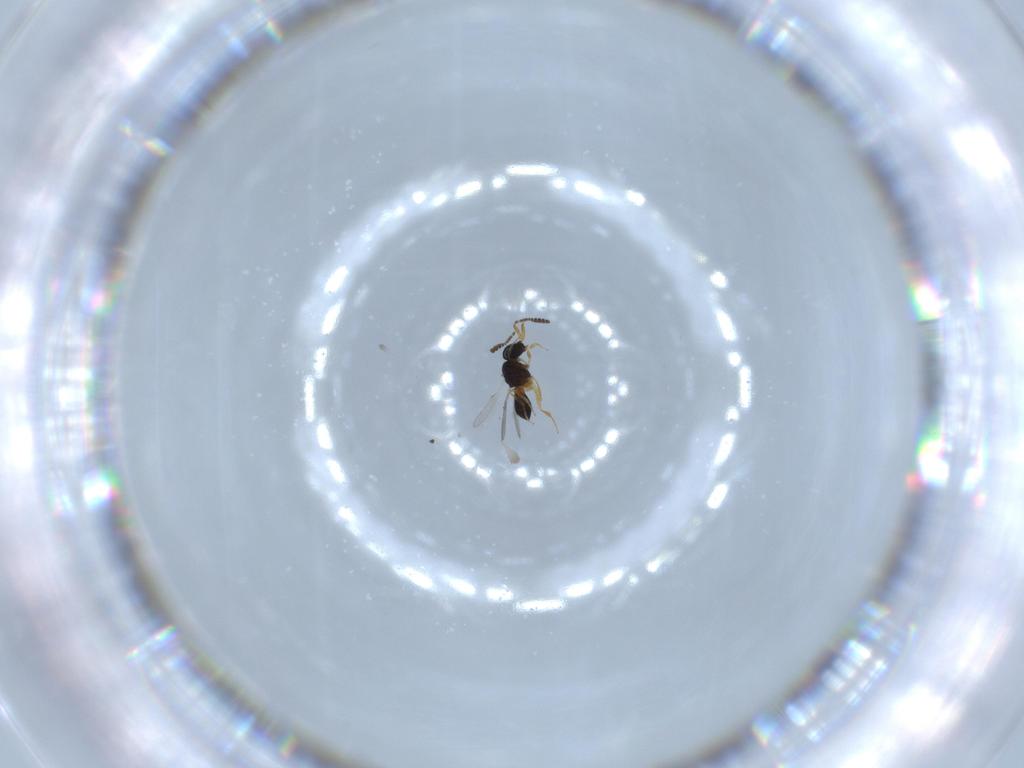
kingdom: Animalia
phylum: Arthropoda
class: Insecta
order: Hymenoptera
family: Scelionidae
